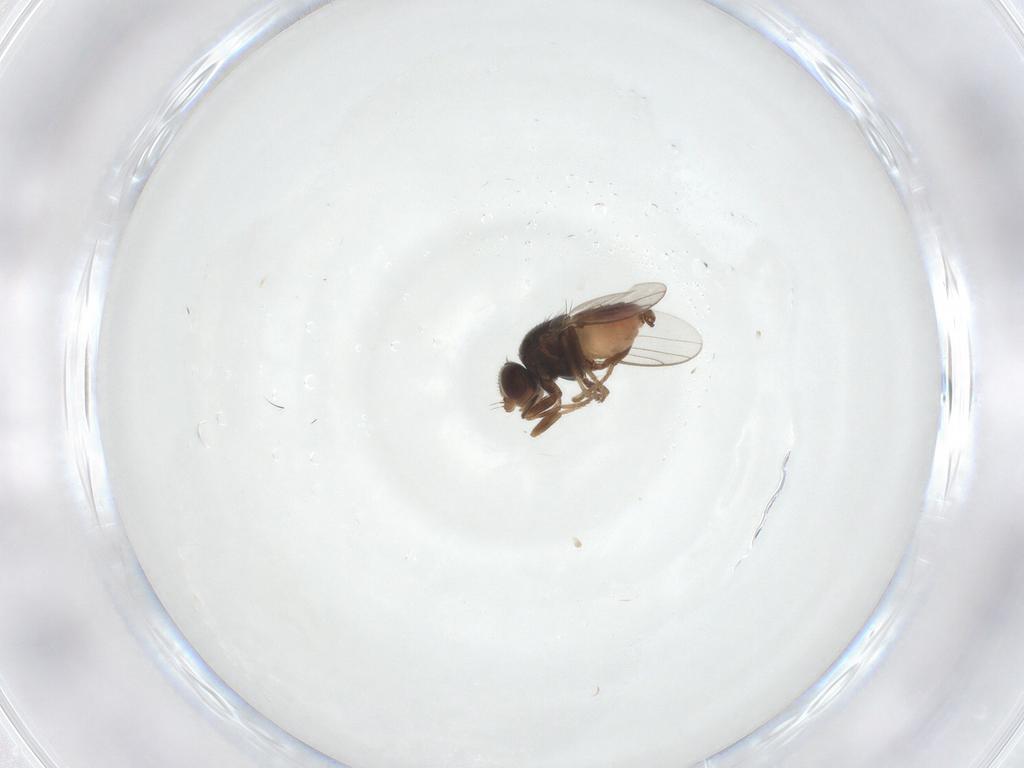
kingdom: Animalia
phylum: Arthropoda
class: Insecta
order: Diptera
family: Chloropidae
